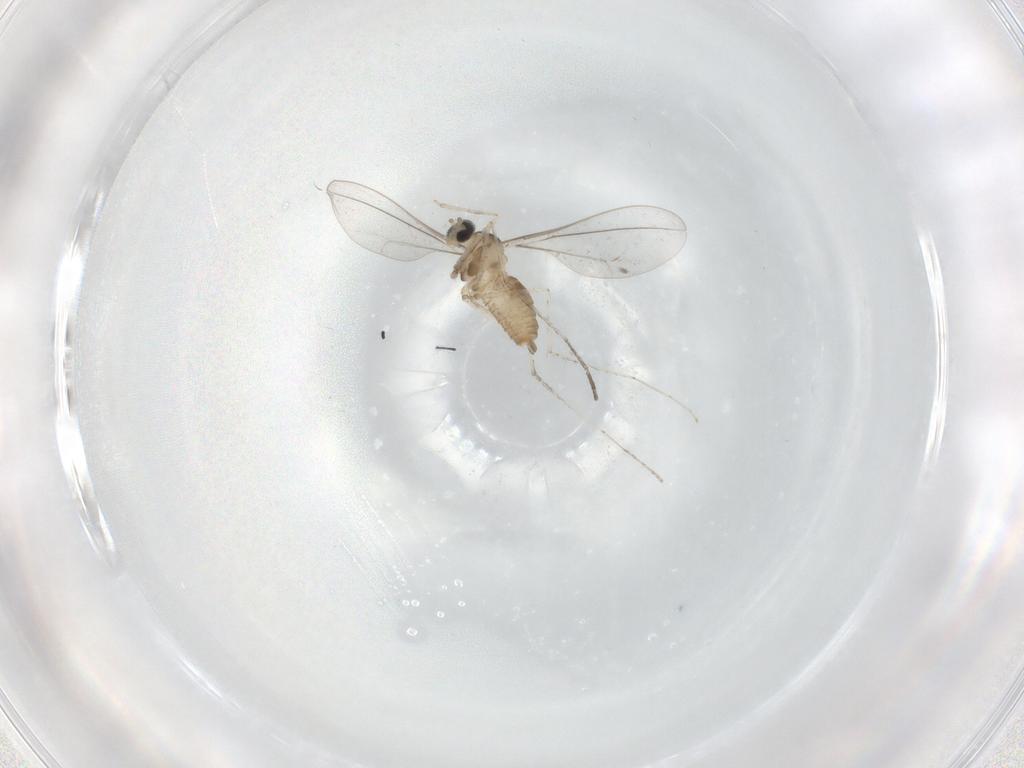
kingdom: Animalia
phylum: Arthropoda
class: Insecta
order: Diptera
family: Cecidomyiidae
